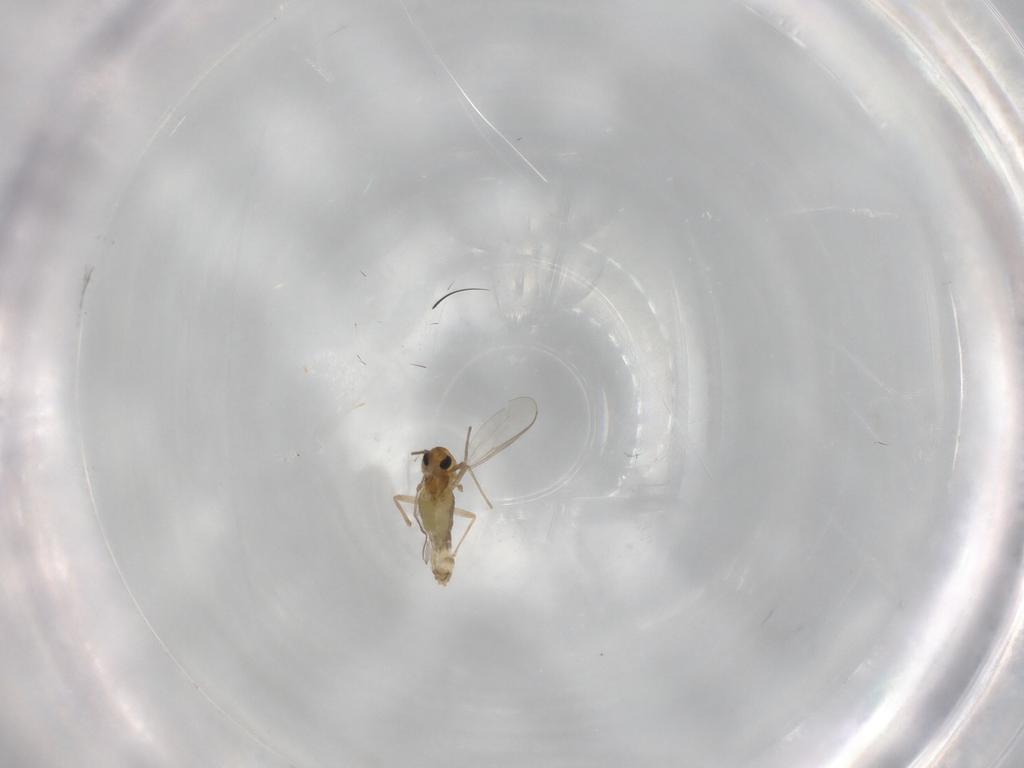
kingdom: Animalia
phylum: Arthropoda
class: Insecta
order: Diptera
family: Chironomidae
